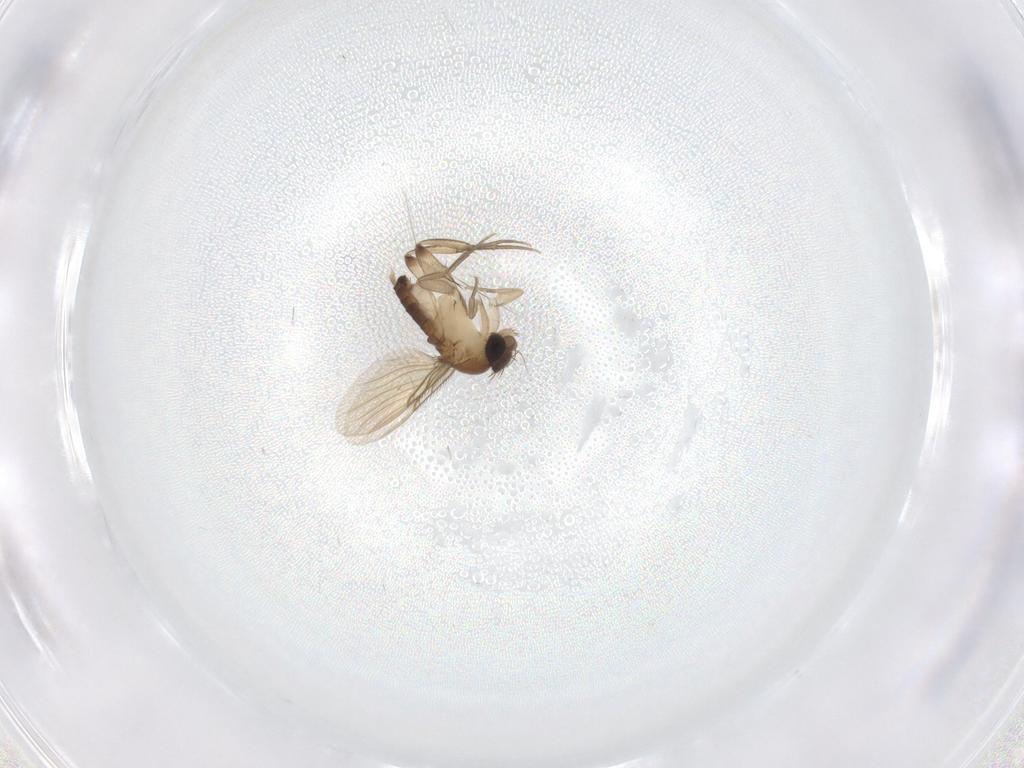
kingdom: Animalia
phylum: Arthropoda
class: Insecta
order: Diptera
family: Phoridae
